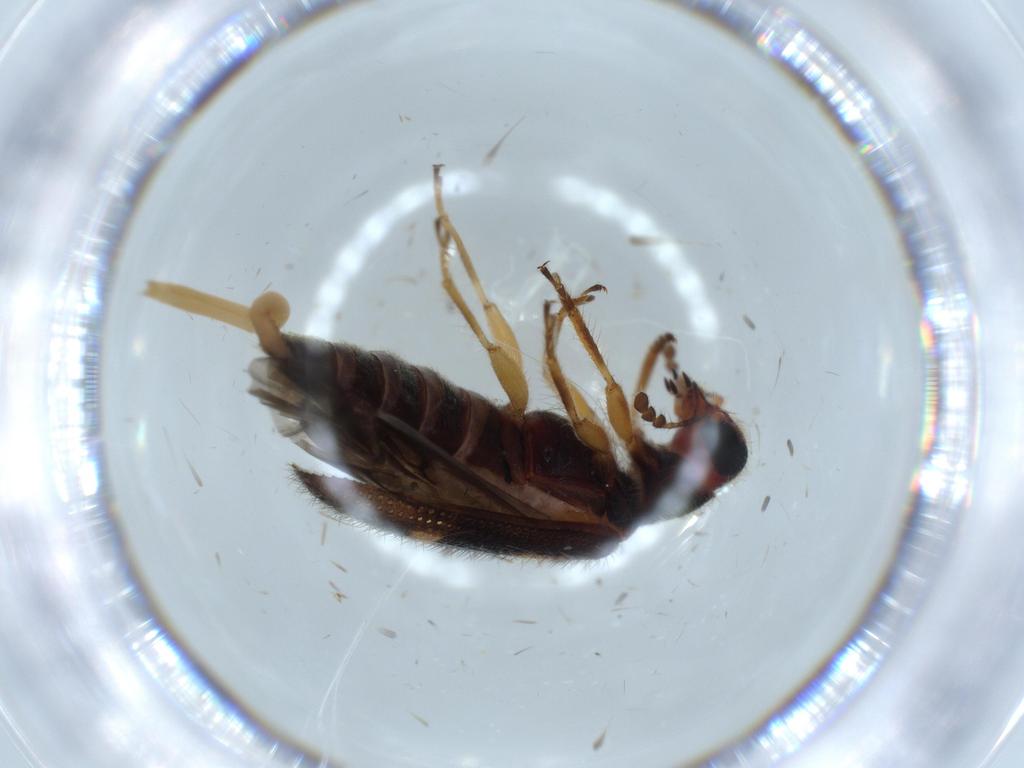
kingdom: Animalia
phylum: Arthropoda
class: Insecta
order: Coleoptera
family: Cleridae
